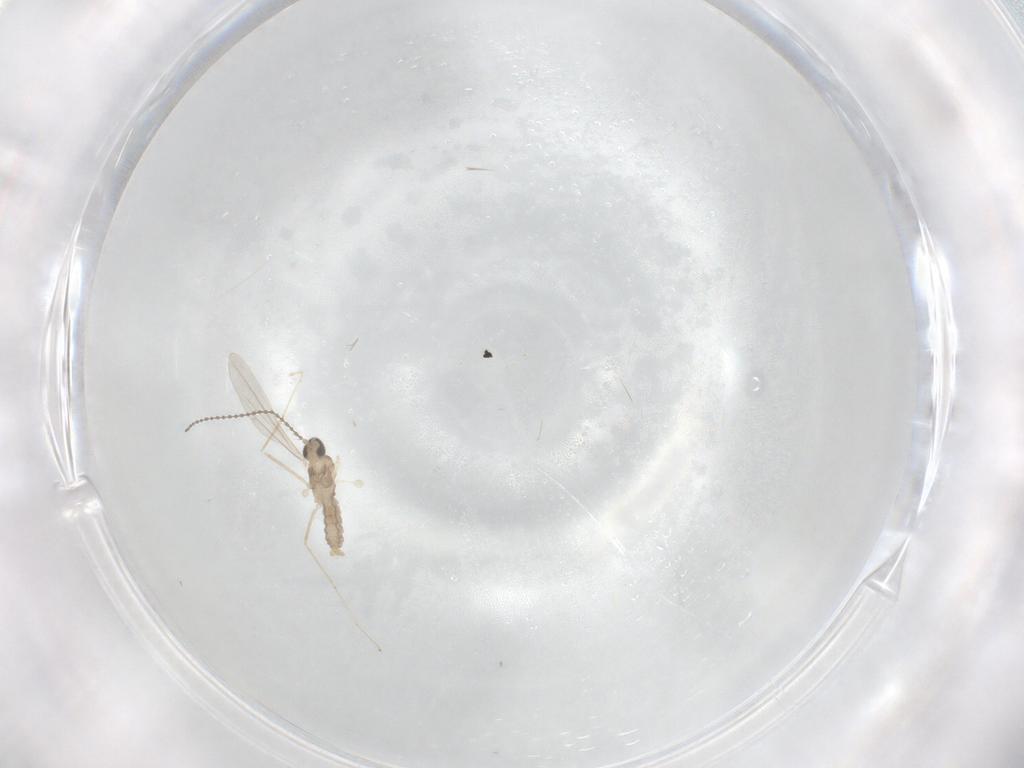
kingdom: Animalia
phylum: Arthropoda
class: Insecta
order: Diptera
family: Cecidomyiidae
